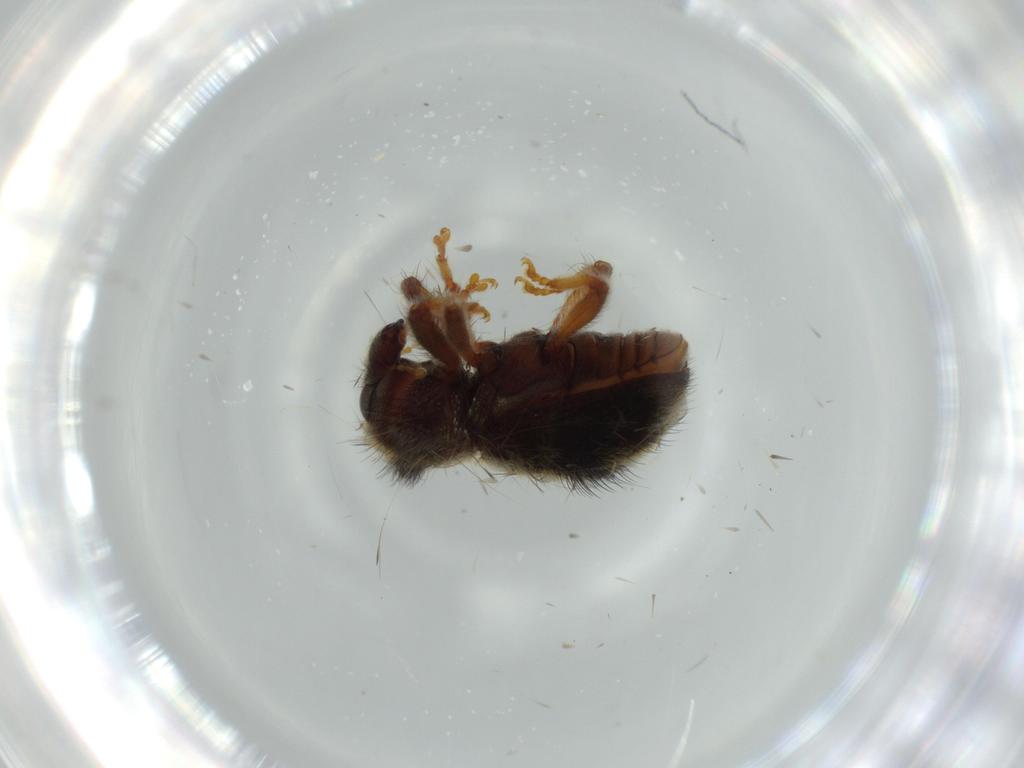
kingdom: Animalia
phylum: Arthropoda
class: Insecta
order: Coleoptera
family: Curculionidae
